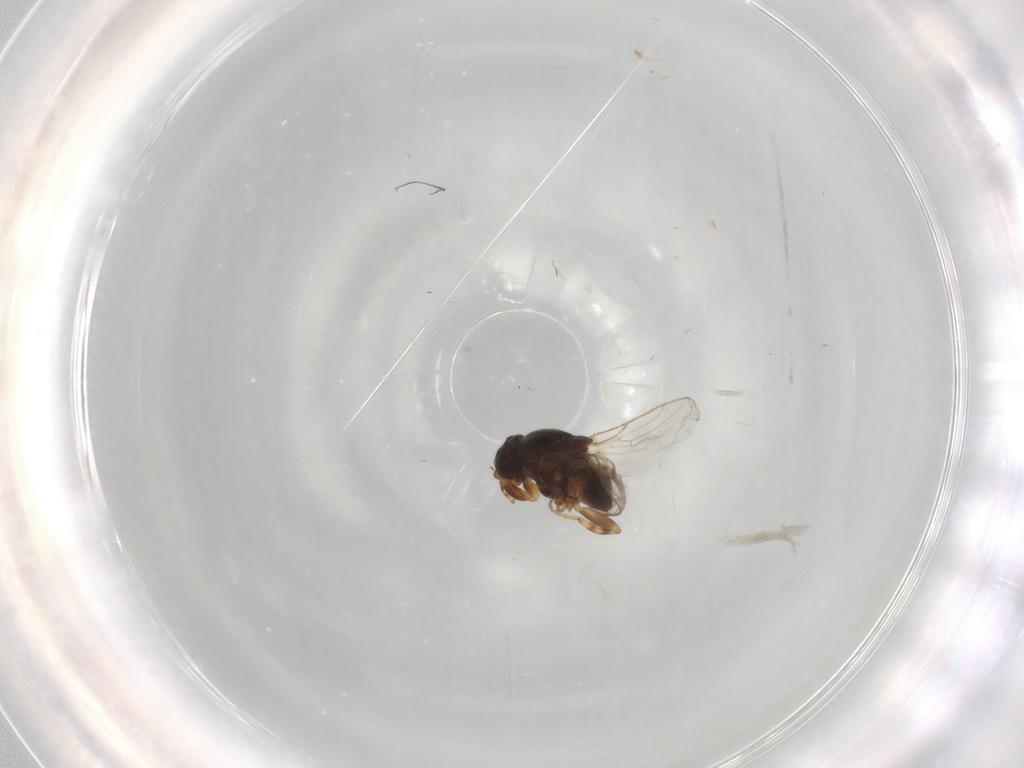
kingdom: Animalia
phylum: Arthropoda
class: Insecta
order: Diptera
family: Chloropidae
